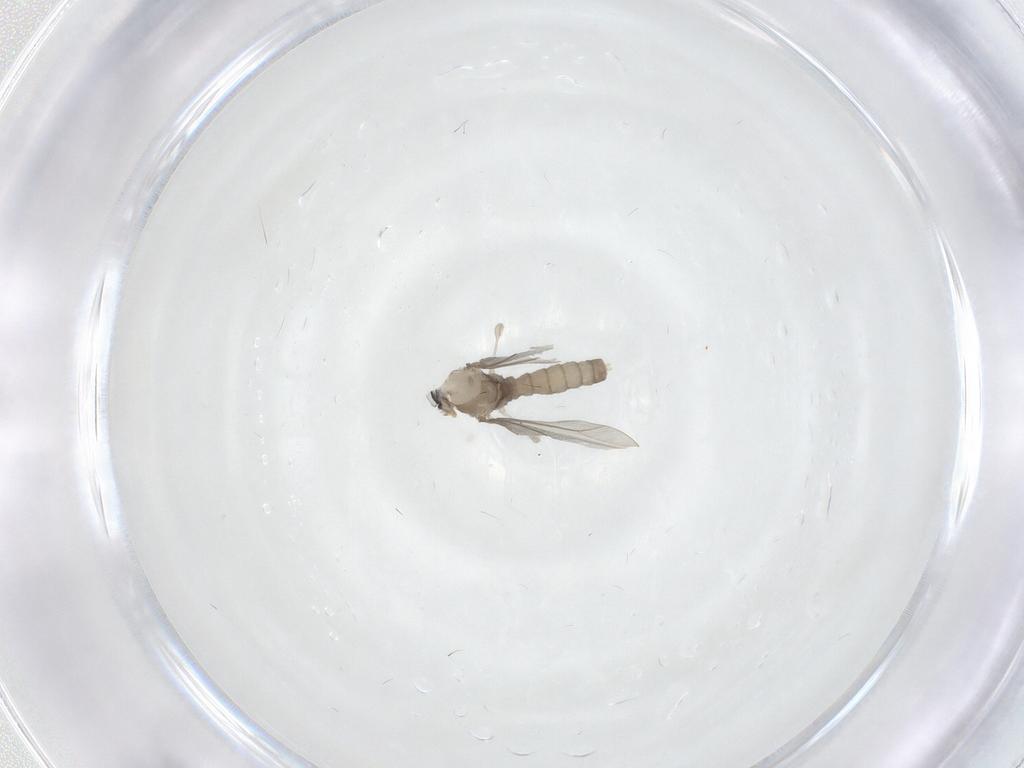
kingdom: Animalia
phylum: Arthropoda
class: Insecta
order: Diptera
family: Cecidomyiidae
